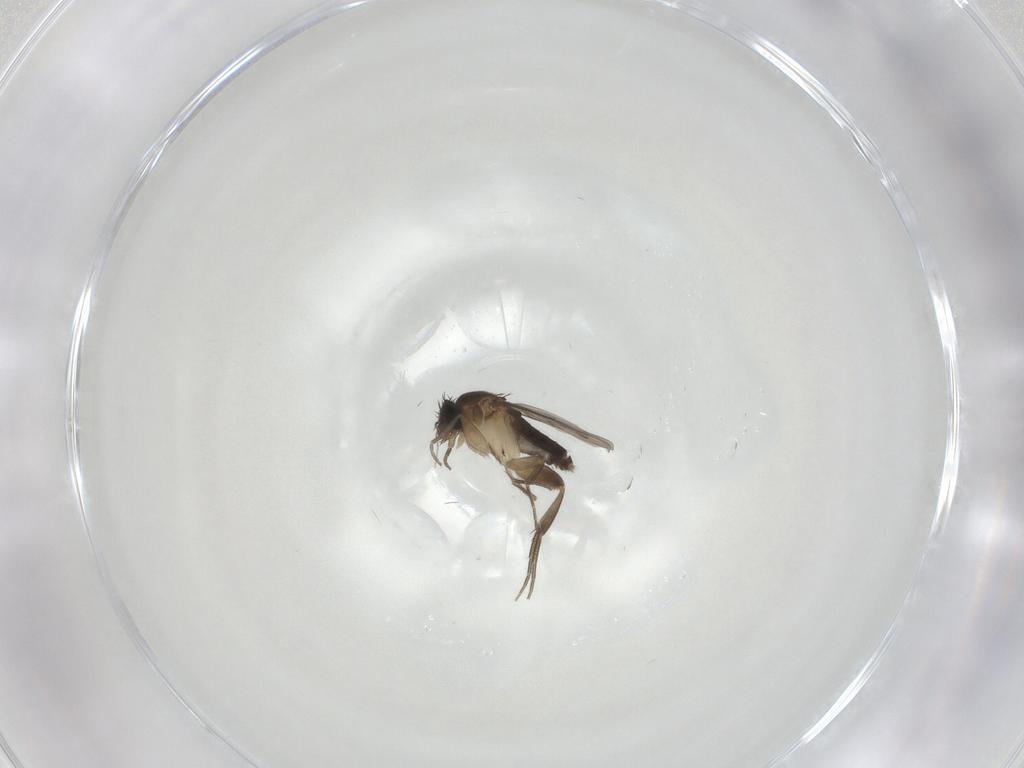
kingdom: Animalia
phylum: Arthropoda
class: Insecta
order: Diptera
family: Phoridae
